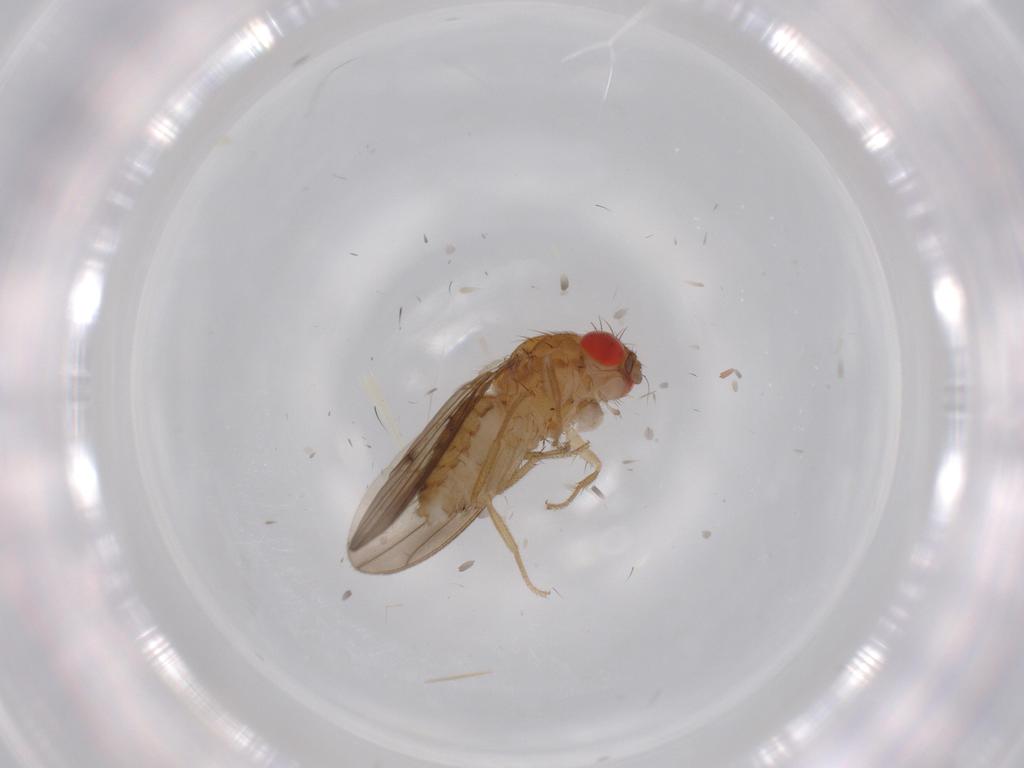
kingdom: Animalia
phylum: Arthropoda
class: Insecta
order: Diptera
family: Drosophilidae
